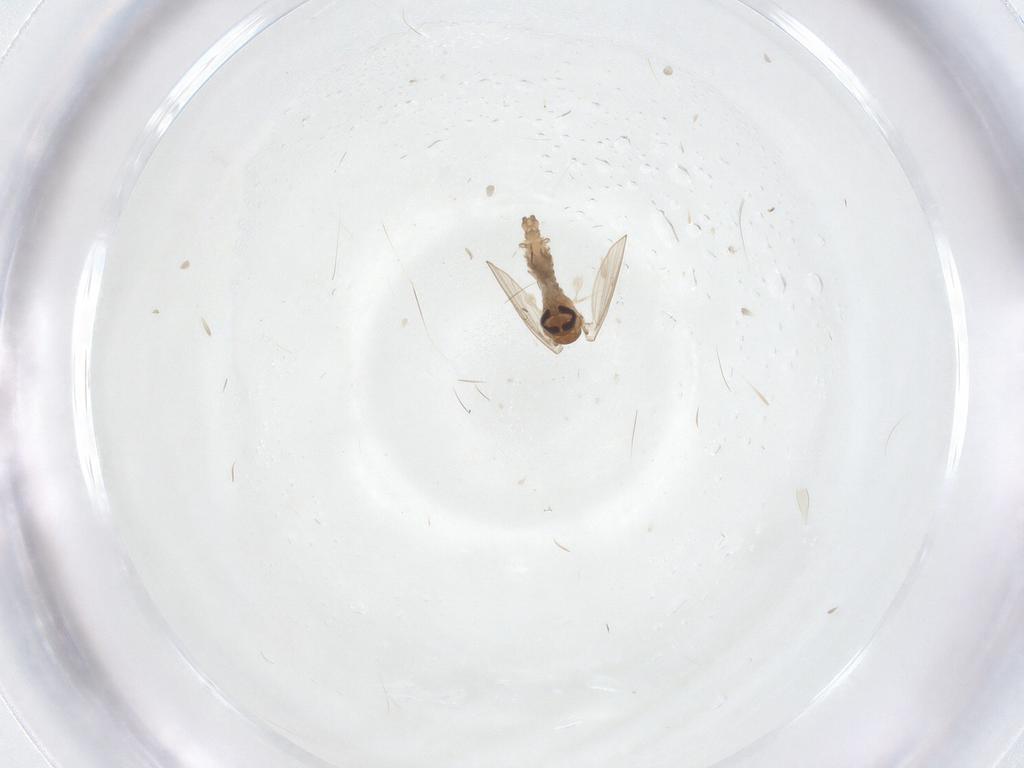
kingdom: Animalia
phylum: Arthropoda
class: Insecta
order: Diptera
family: Psychodidae
